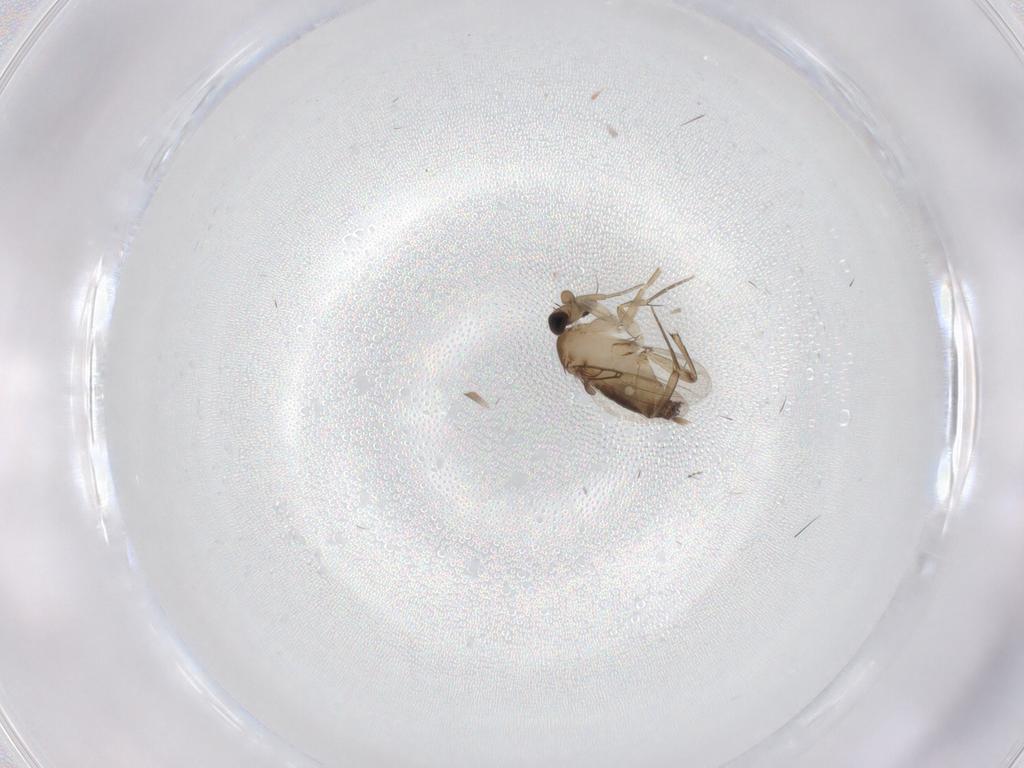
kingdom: Animalia
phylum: Arthropoda
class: Insecta
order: Diptera
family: Phoridae
